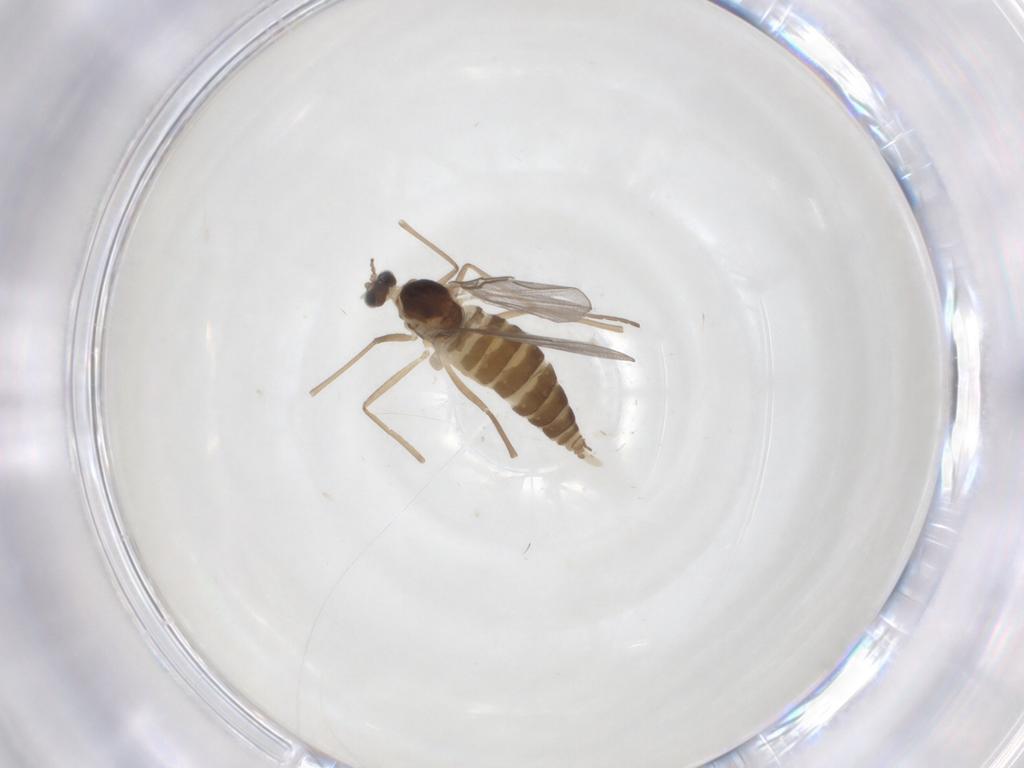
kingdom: Animalia
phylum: Arthropoda
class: Insecta
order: Diptera
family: Cecidomyiidae
